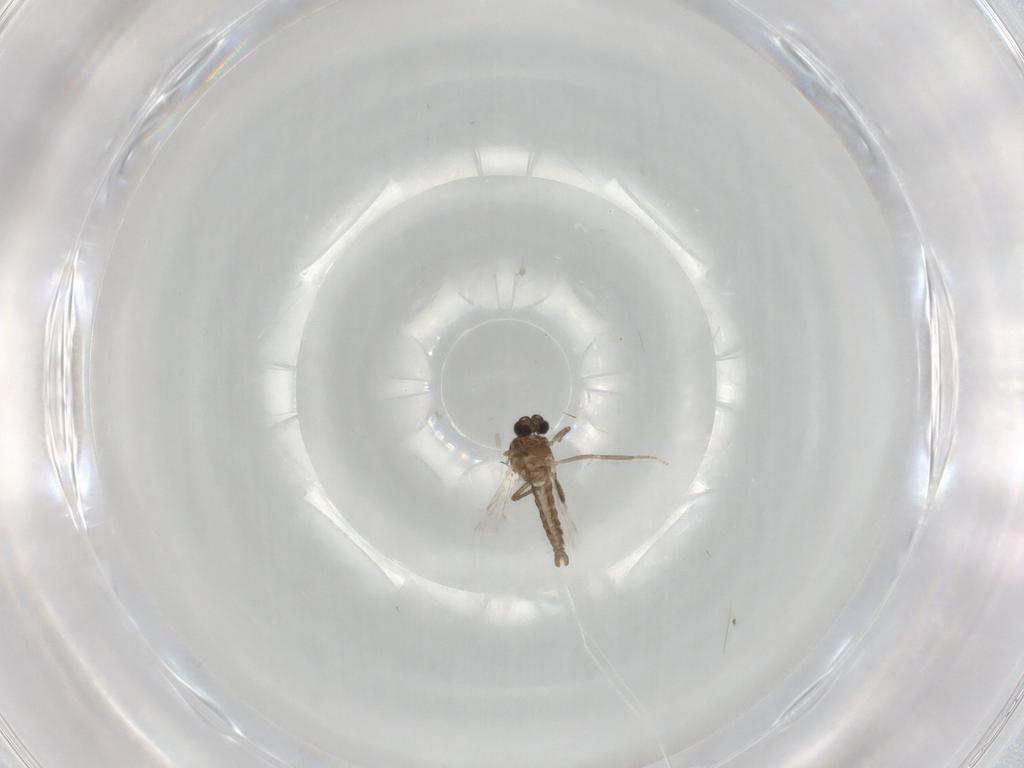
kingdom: Animalia
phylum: Arthropoda
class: Insecta
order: Diptera
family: Ceratopogonidae
